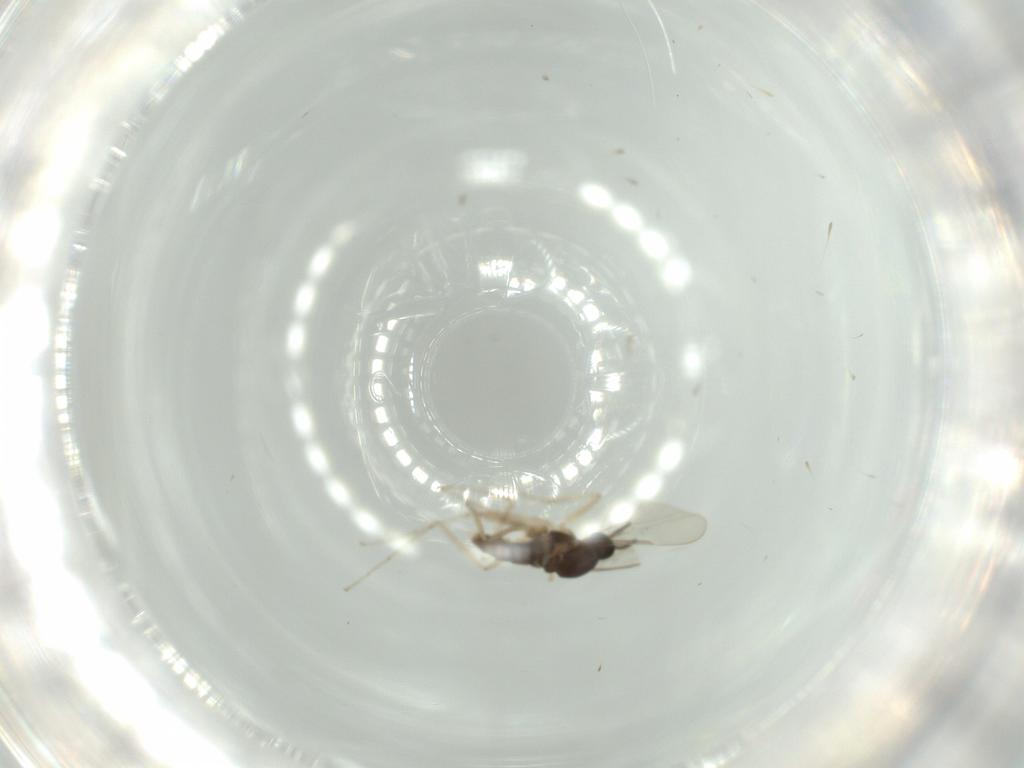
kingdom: Animalia
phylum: Arthropoda
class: Insecta
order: Diptera
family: Cecidomyiidae
